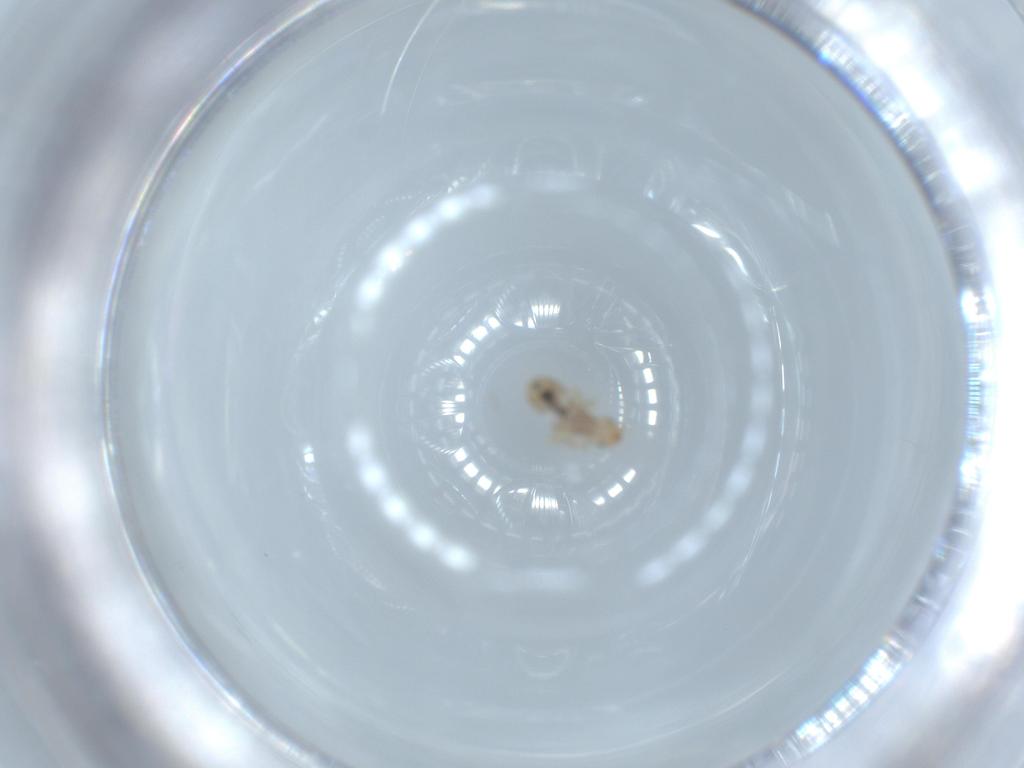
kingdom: Animalia
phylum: Arthropoda
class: Insecta
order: Psocodea
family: Liposcelididae
